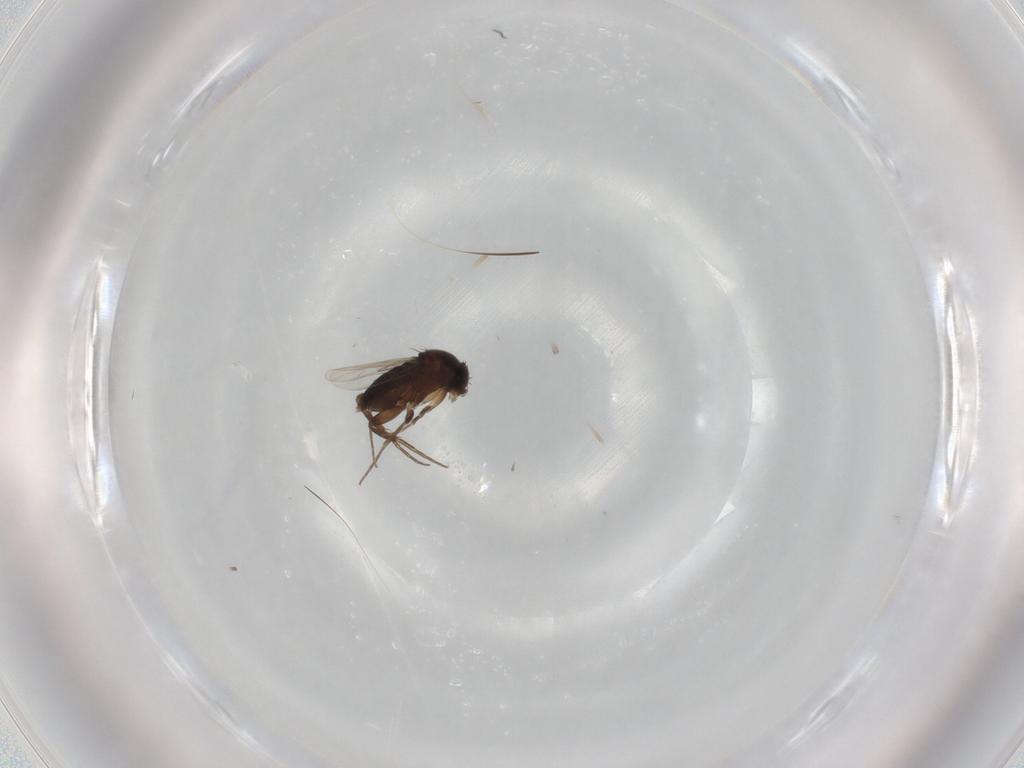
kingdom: Animalia
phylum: Arthropoda
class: Insecta
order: Diptera
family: Phoridae
